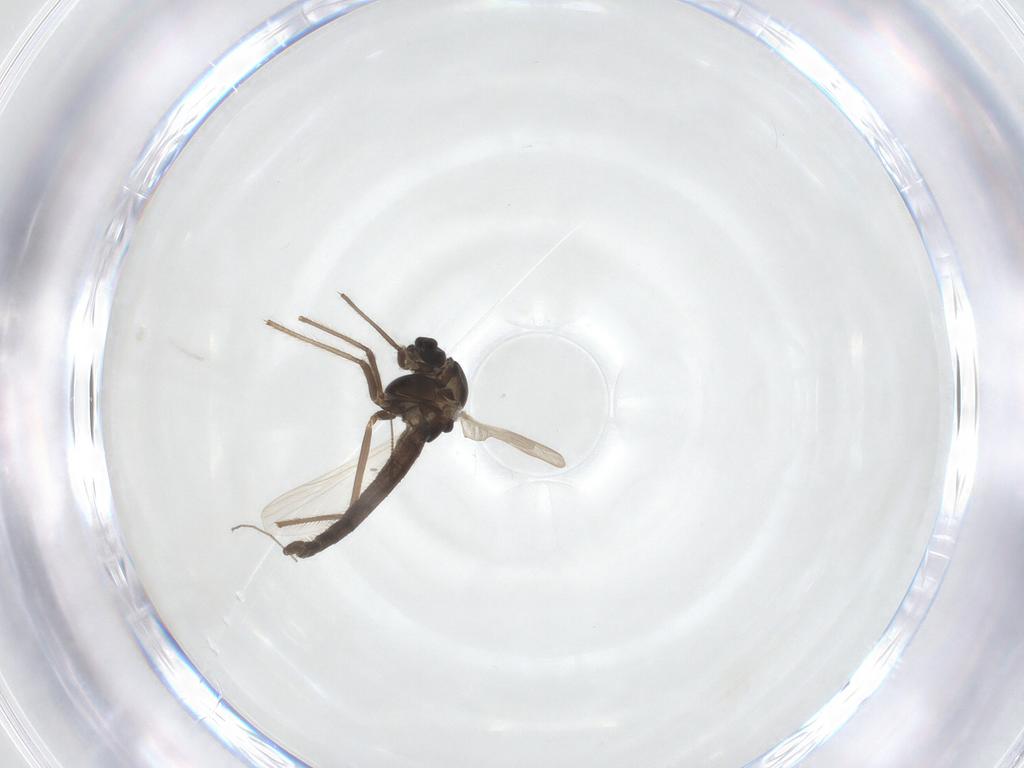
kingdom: Animalia
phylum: Arthropoda
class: Insecta
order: Diptera
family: Chironomidae
